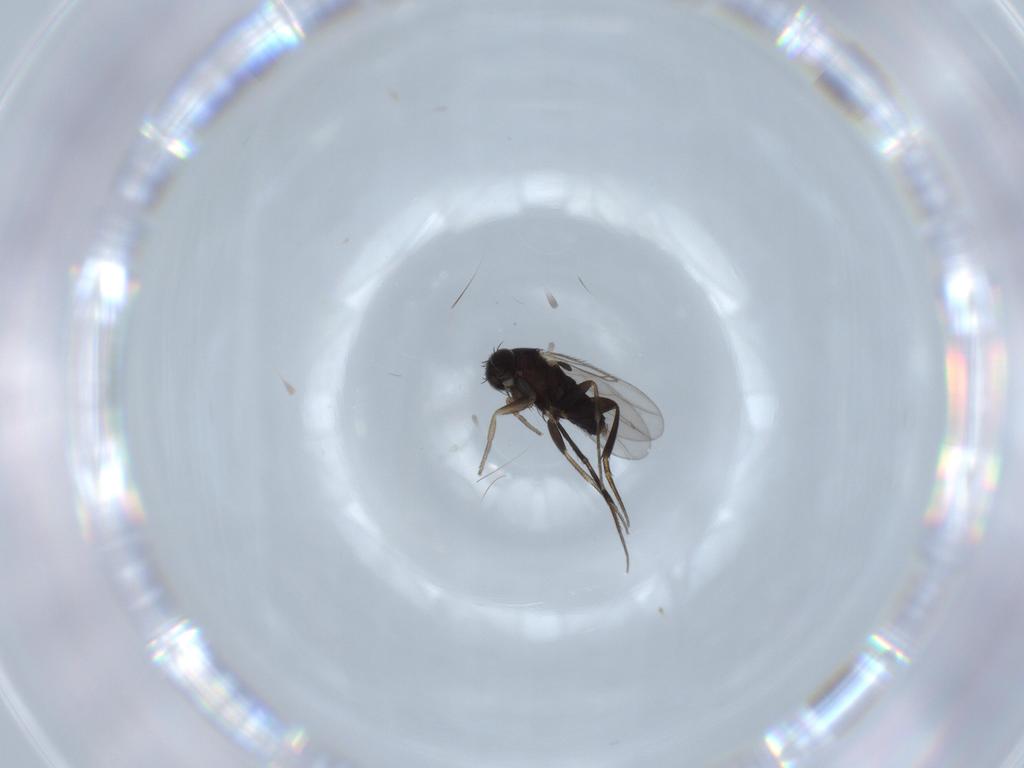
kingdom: Animalia
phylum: Arthropoda
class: Insecta
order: Diptera
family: Phoridae
